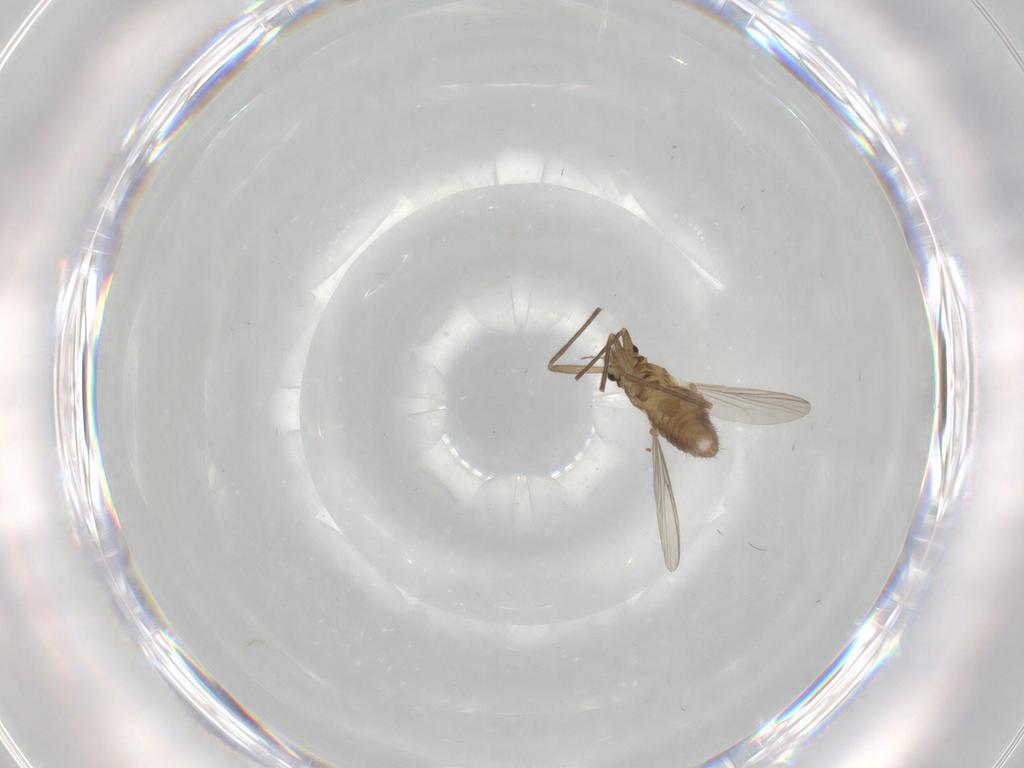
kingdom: Animalia
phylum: Arthropoda
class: Insecta
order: Diptera
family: Chironomidae
